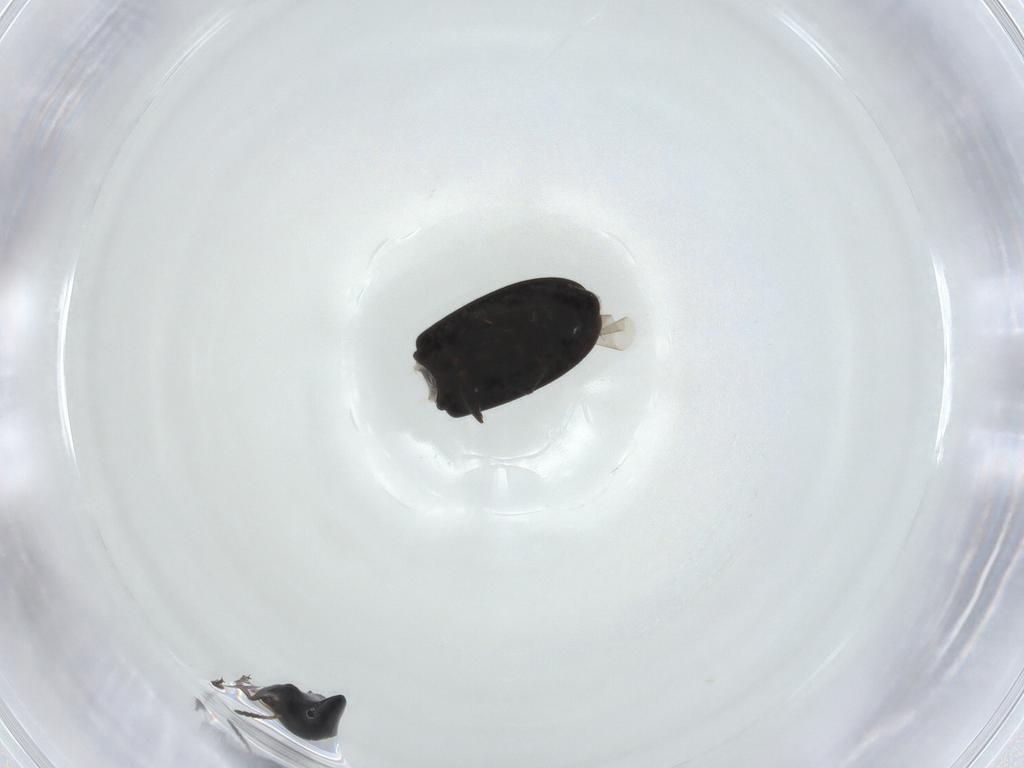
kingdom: Animalia
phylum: Arthropoda
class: Insecta
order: Coleoptera
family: Scraptiidae
